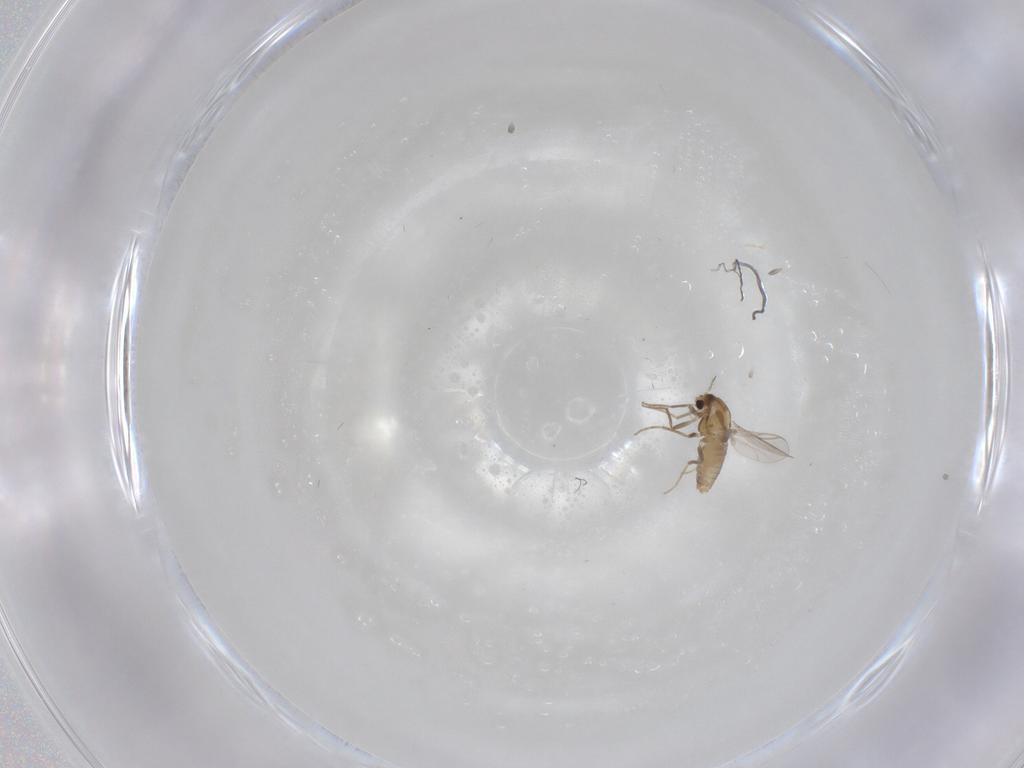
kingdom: Animalia
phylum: Arthropoda
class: Insecta
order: Diptera
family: Chironomidae
